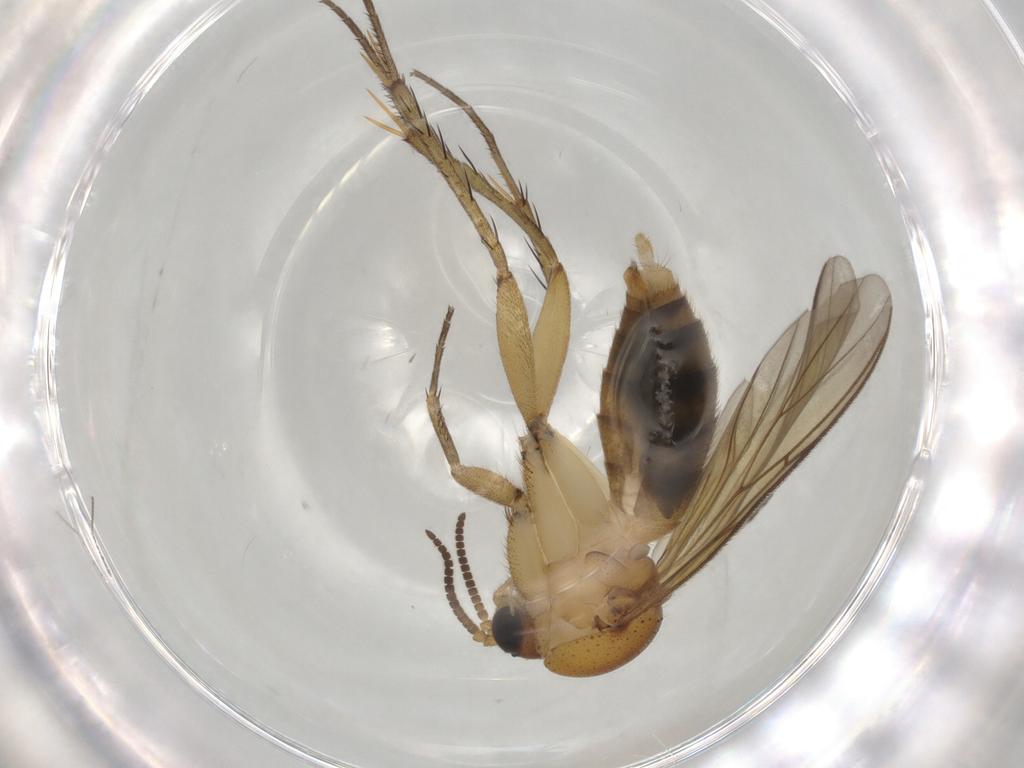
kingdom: Animalia
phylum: Arthropoda
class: Insecta
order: Diptera
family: Mycetophilidae
